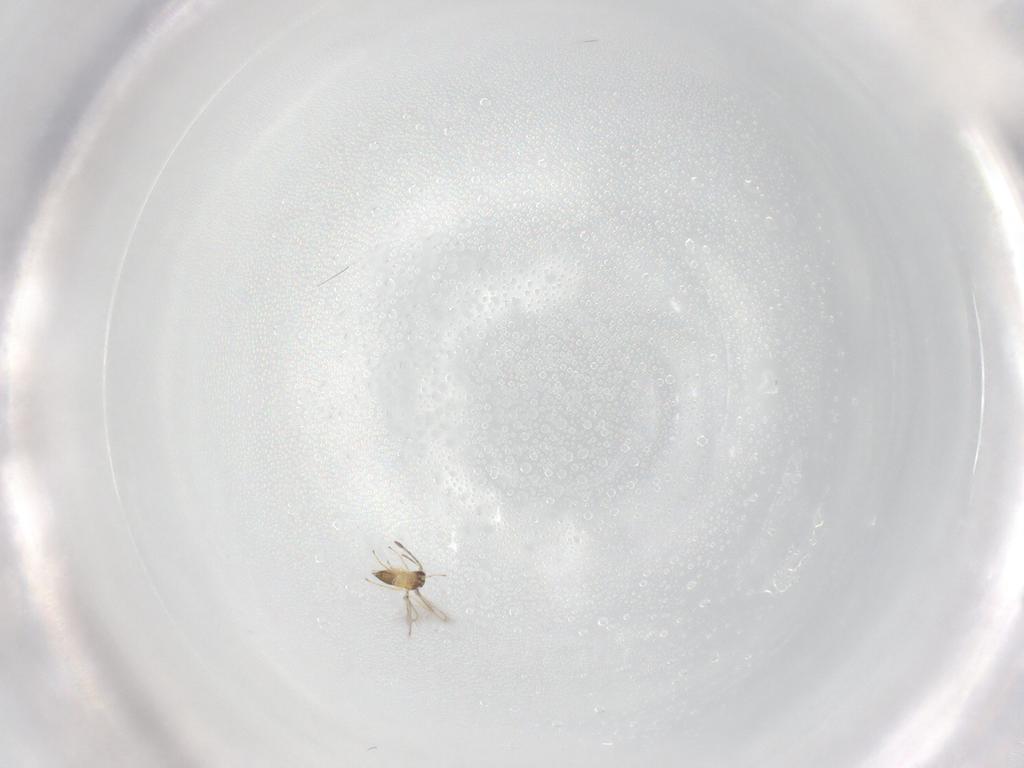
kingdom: Animalia
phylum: Arthropoda
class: Insecta
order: Hymenoptera
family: Mymaridae
